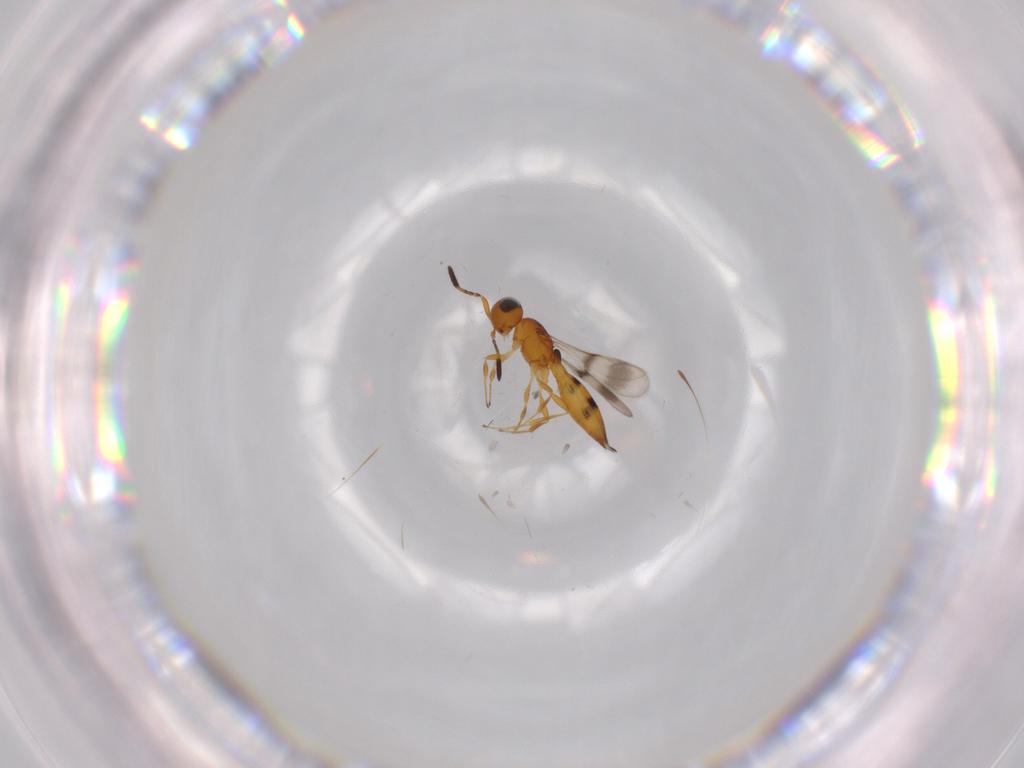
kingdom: Animalia
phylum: Arthropoda
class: Insecta
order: Hymenoptera
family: Scelionidae
